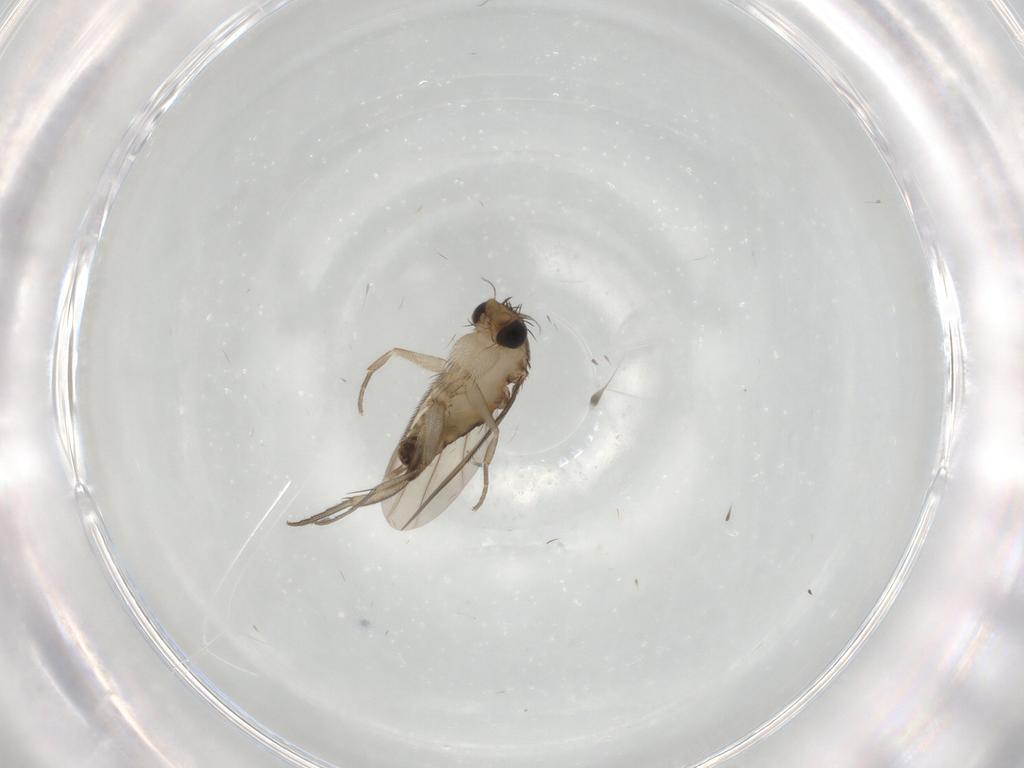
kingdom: Animalia
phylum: Arthropoda
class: Insecta
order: Diptera
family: Phoridae
